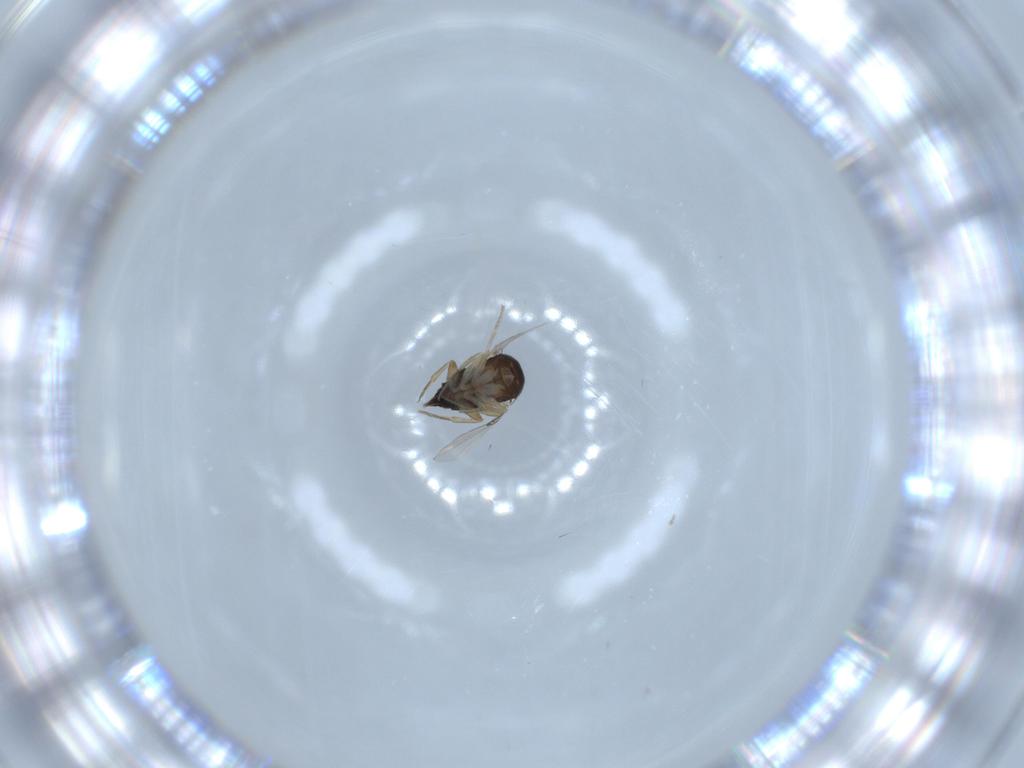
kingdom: Animalia
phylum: Arthropoda
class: Insecta
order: Diptera
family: Phoridae
